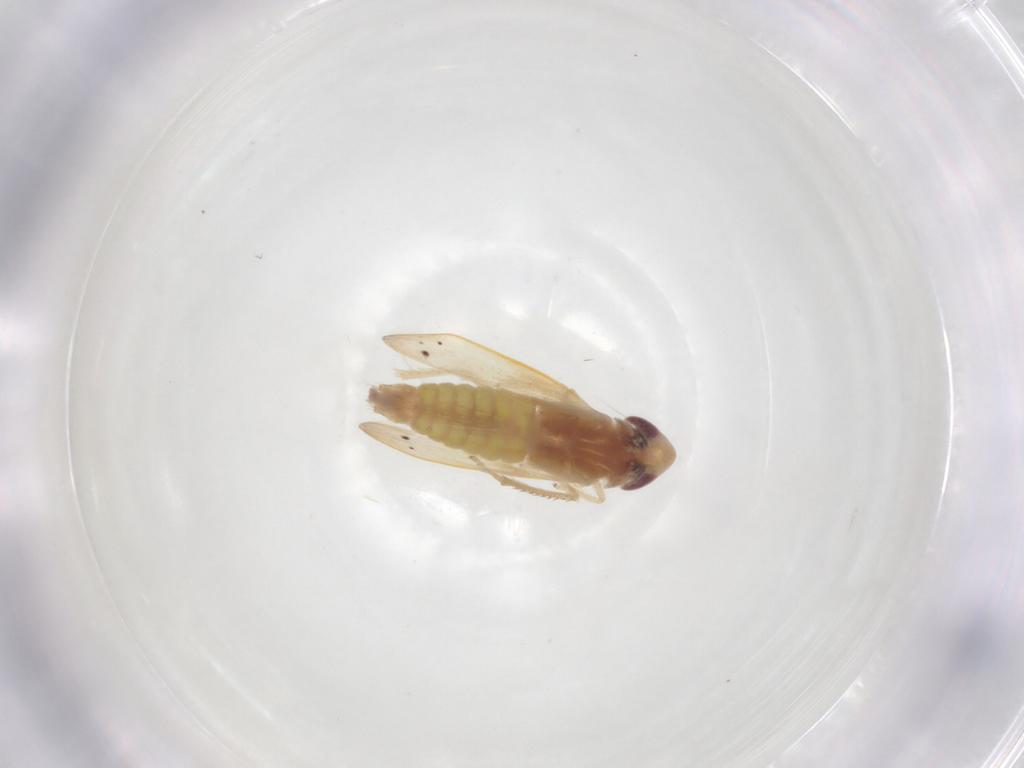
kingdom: Animalia
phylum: Arthropoda
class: Insecta
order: Hemiptera
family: Cicadellidae
